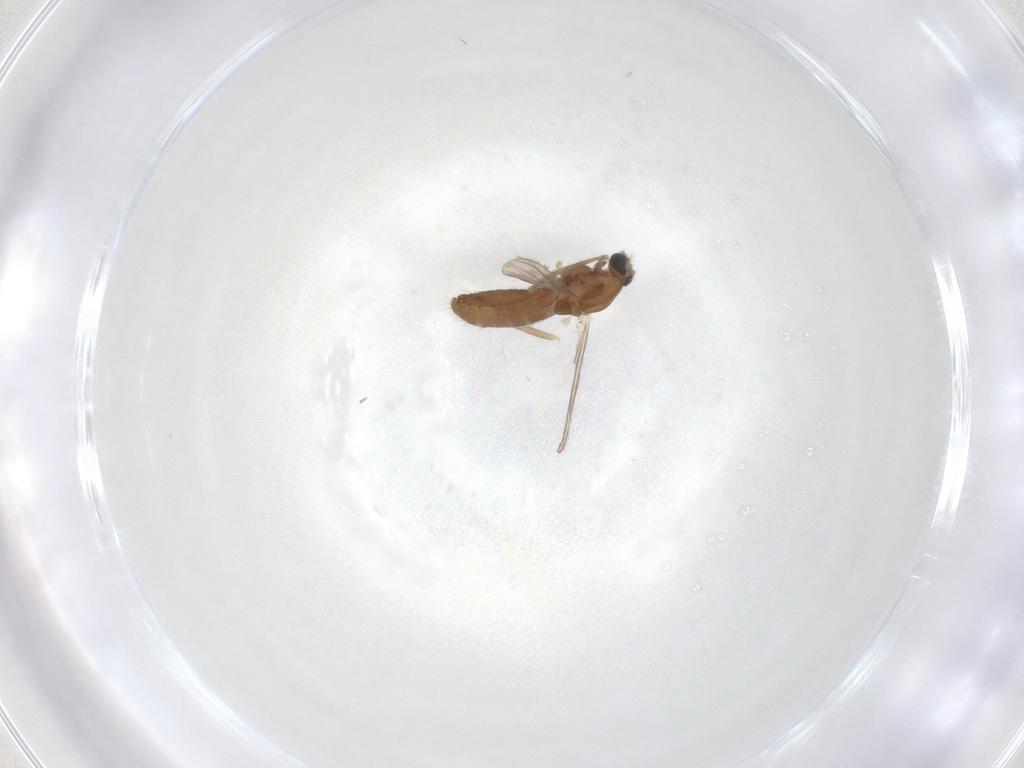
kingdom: Animalia
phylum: Arthropoda
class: Insecta
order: Diptera
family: Chironomidae
